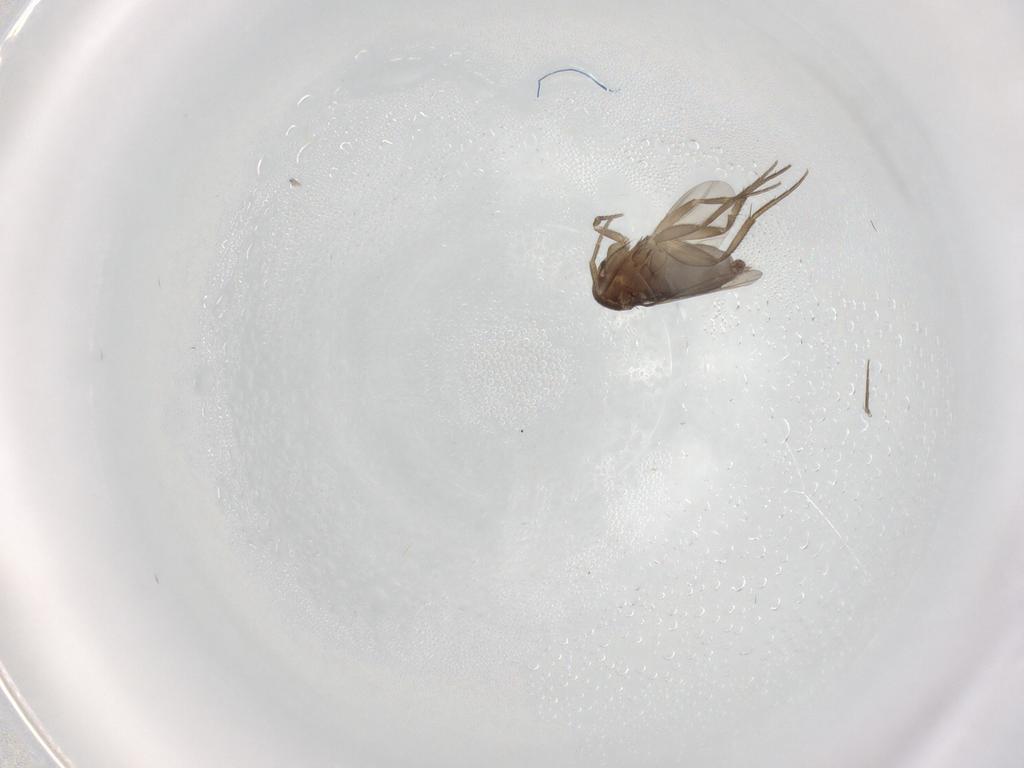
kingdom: Animalia
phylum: Arthropoda
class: Insecta
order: Diptera
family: Phoridae
